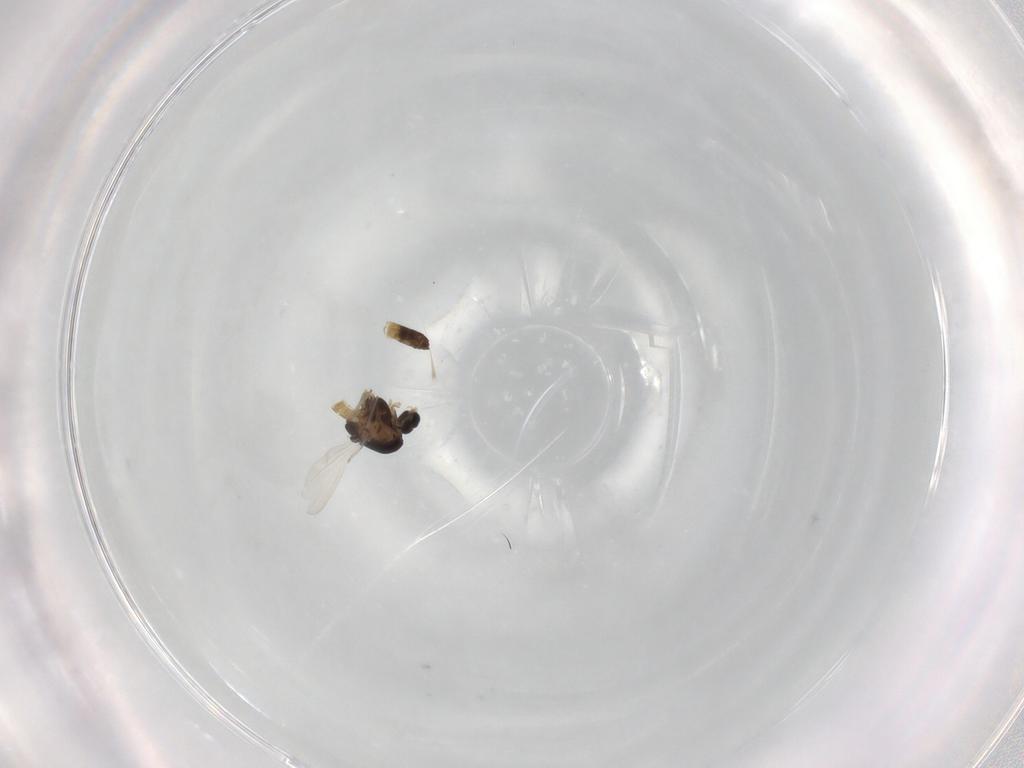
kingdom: Animalia
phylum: Arthropoda
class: Insecta
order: Diptera
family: Chironomidae
